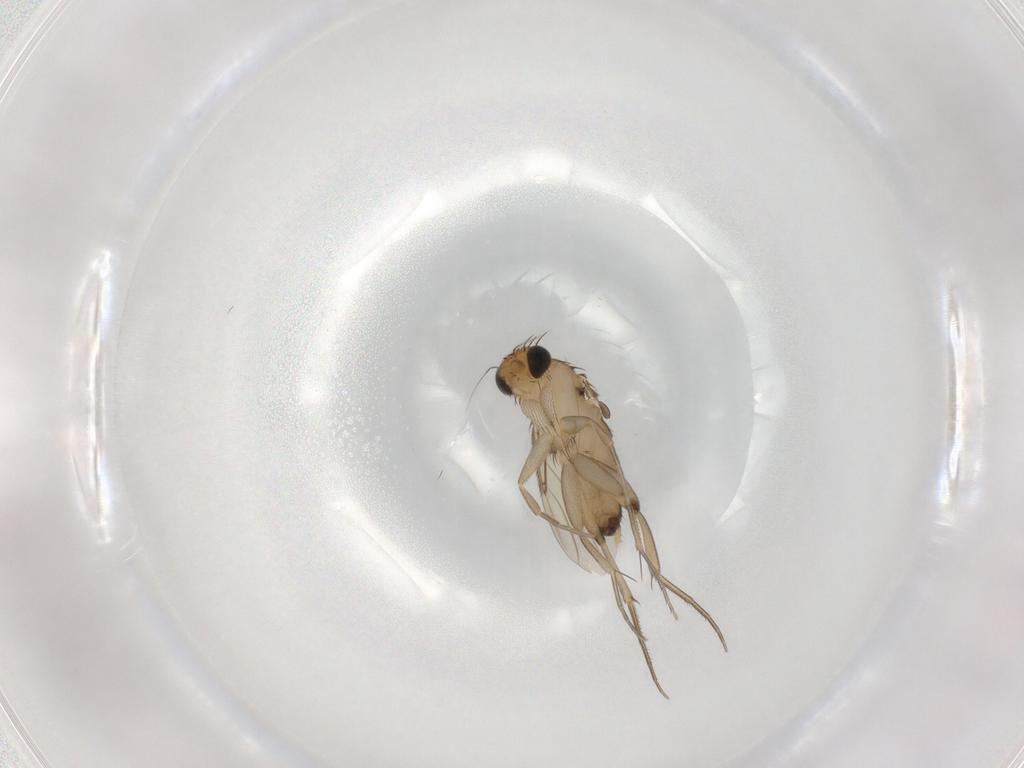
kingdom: Animalia
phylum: Arthropoda
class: Insecta
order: Diptera
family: Phoridae
